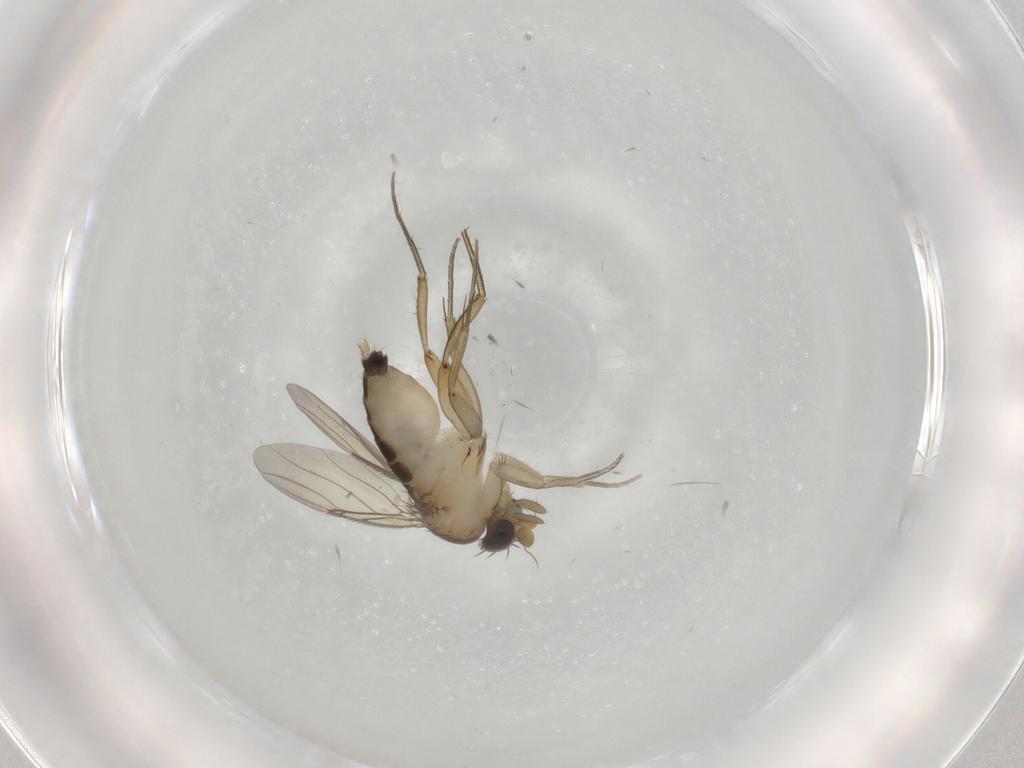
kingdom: Animalia
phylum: Arthropoda
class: Insecta
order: Diptera
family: Phoridae
